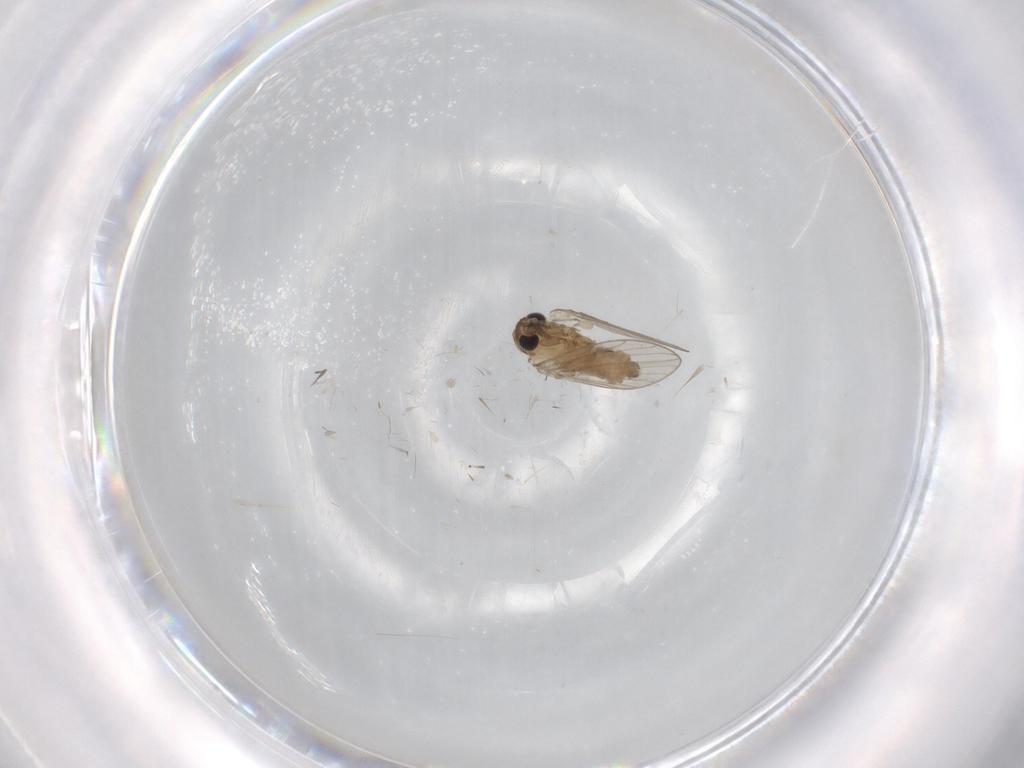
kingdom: Animalia
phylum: Arthropoda
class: Insecta
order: Diptera
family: Psychodidae
